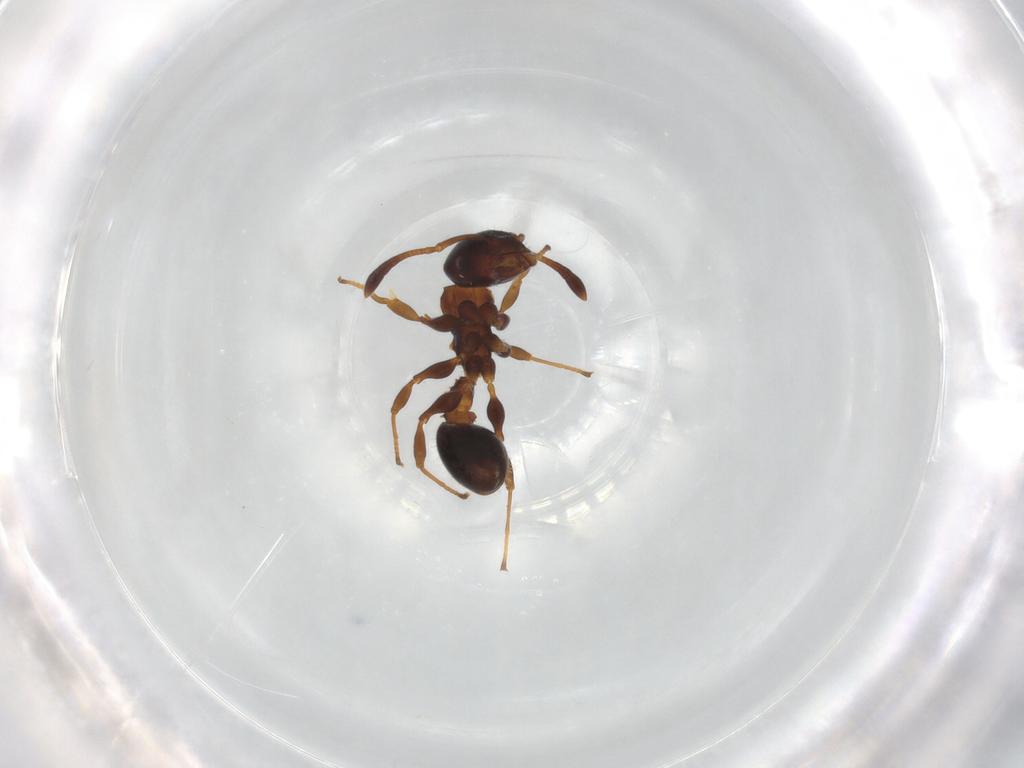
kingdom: Animalia
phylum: Arthropoda
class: Insecta
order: Hymenoptera
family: Formicidae
